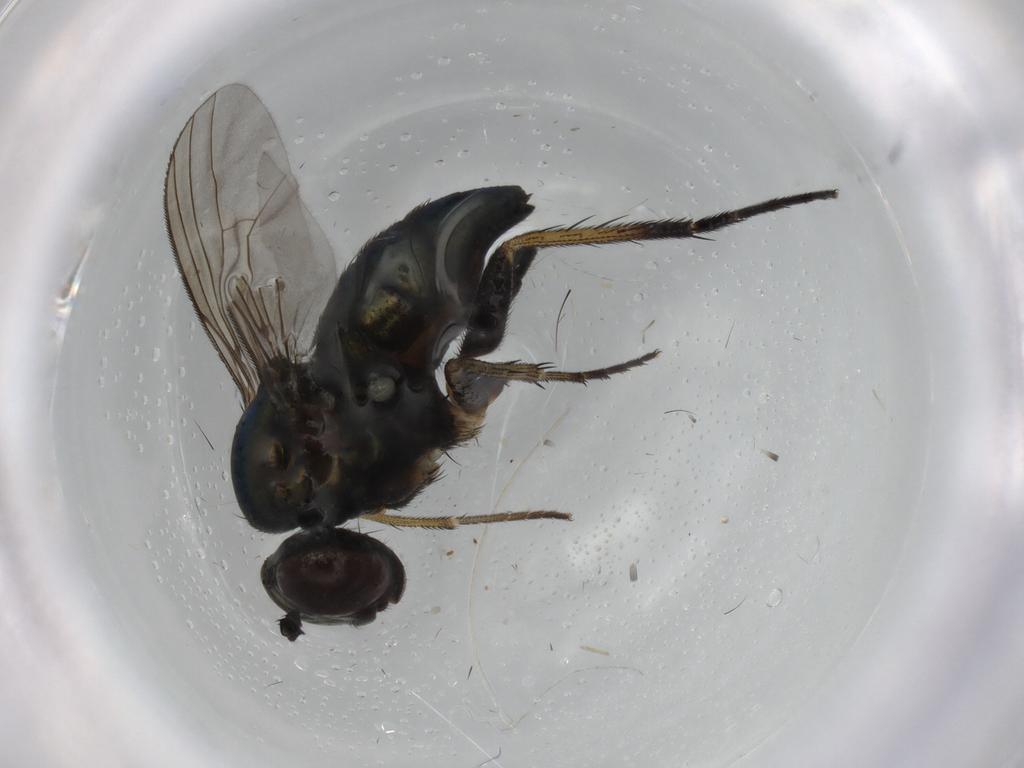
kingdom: Animalia
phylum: Arthropoda
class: Insecta
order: Diptera
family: Dolichopodidae
